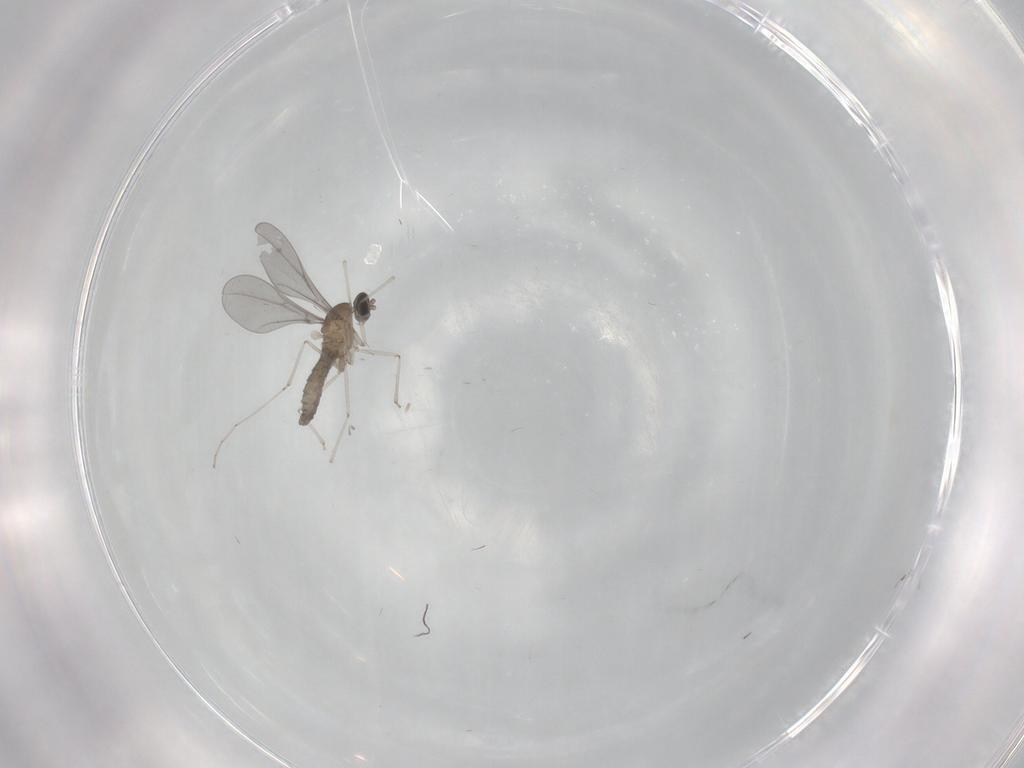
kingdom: Animalia
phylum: Arthropoda
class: Insecta
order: Diptera
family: Cecidomyiidae
